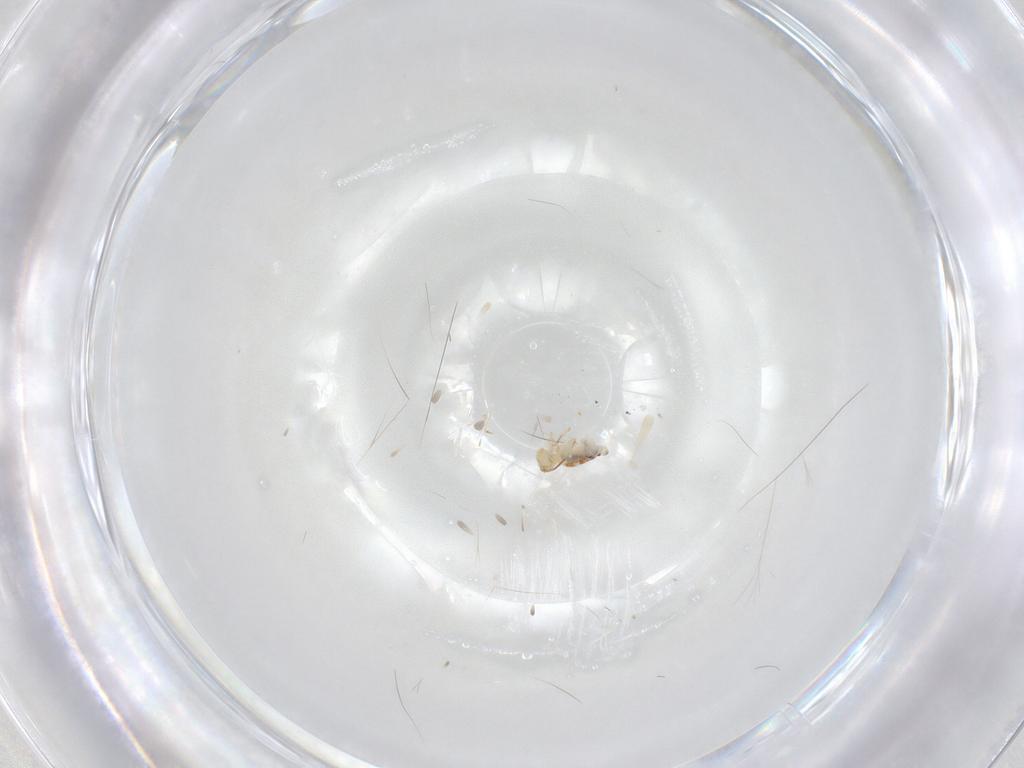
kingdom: Animalia
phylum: Arthropoda
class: Collembola
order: Symphypleona
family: Bourletiellidae
